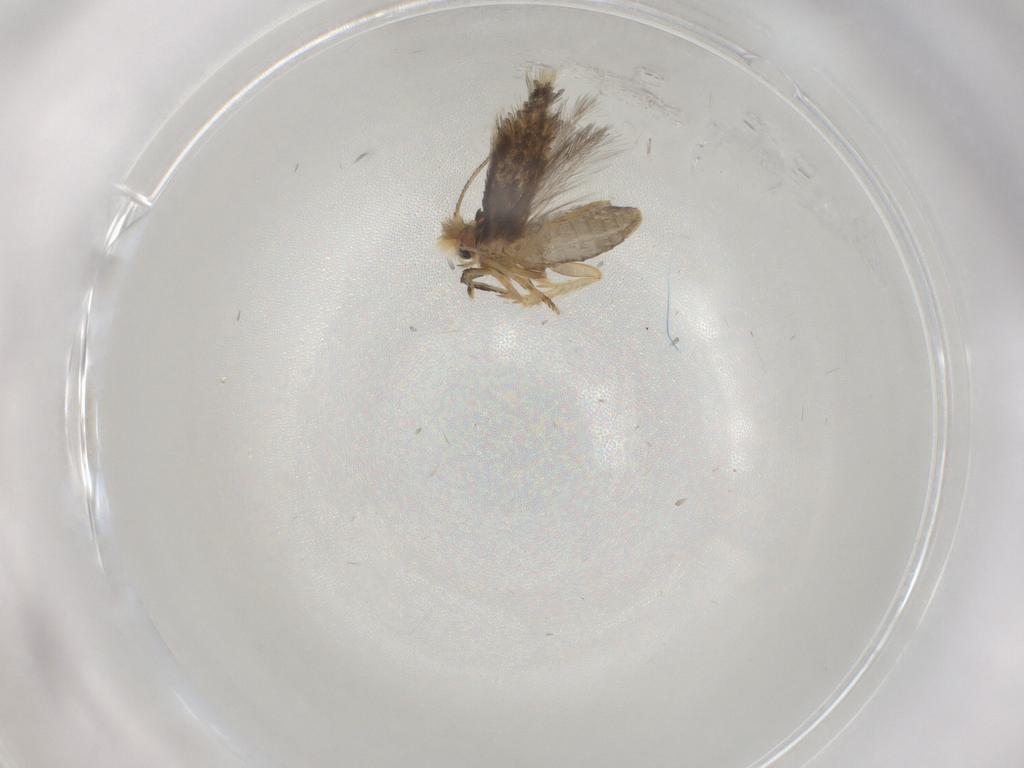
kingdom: Animalia
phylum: Arthropoda
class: Insecta
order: Lepidoptera
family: Nepticulidae
